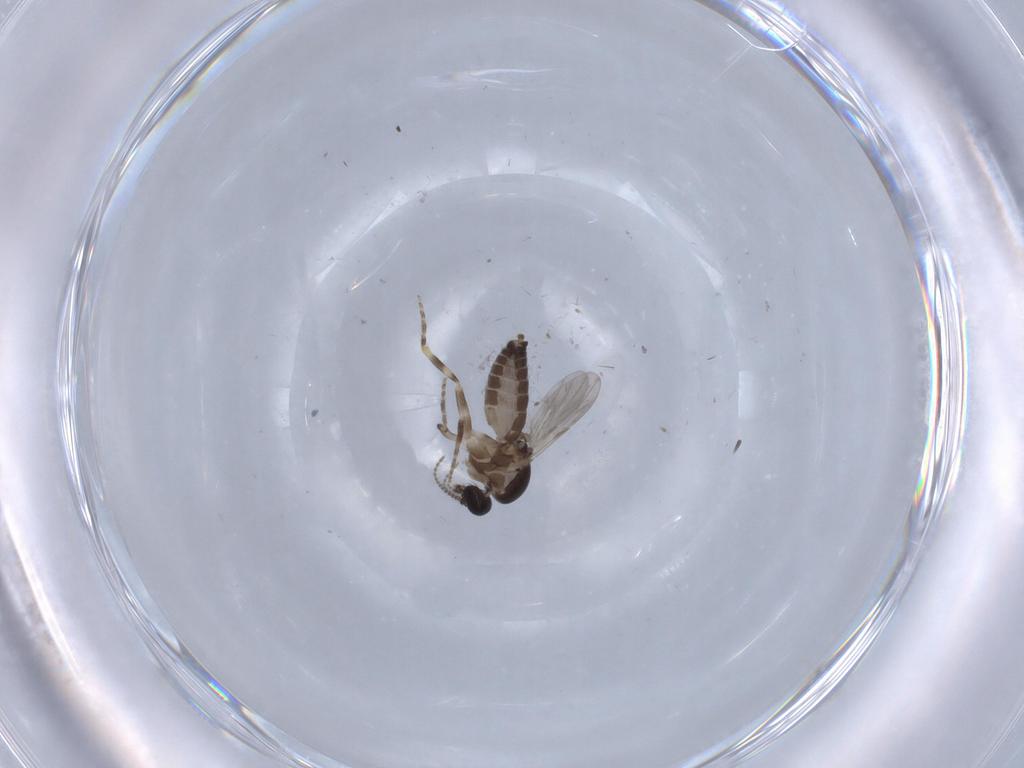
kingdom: Animalia
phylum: Arthropoda
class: Insecta
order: Diptera
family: Ceratopogonidae
